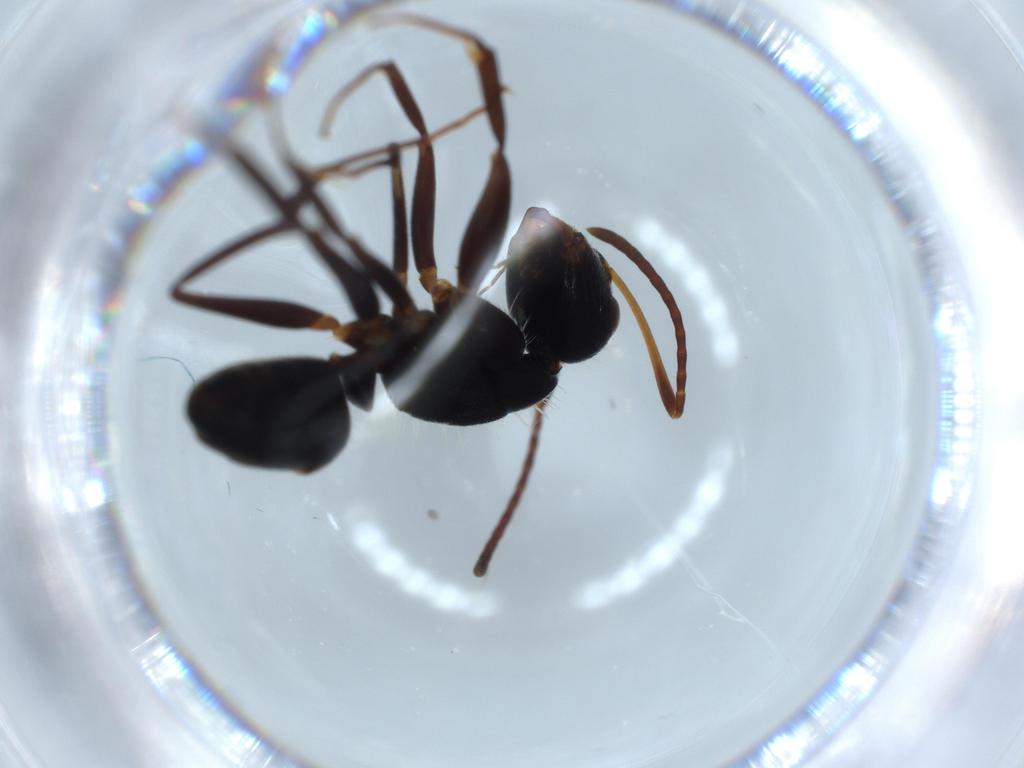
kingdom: Animalia
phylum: Arthropoda
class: Insecta
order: Hymenoptera
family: Formicidae
